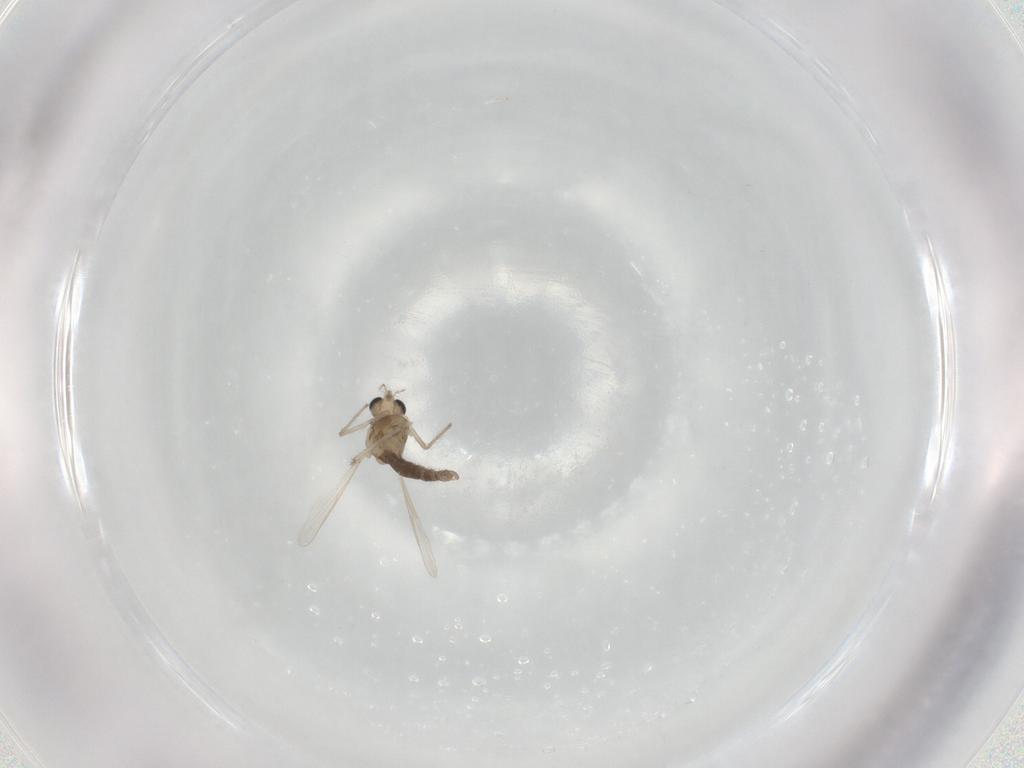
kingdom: Animalia
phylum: Arthropoda
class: Insecta
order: Diptera
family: Chironomidae
